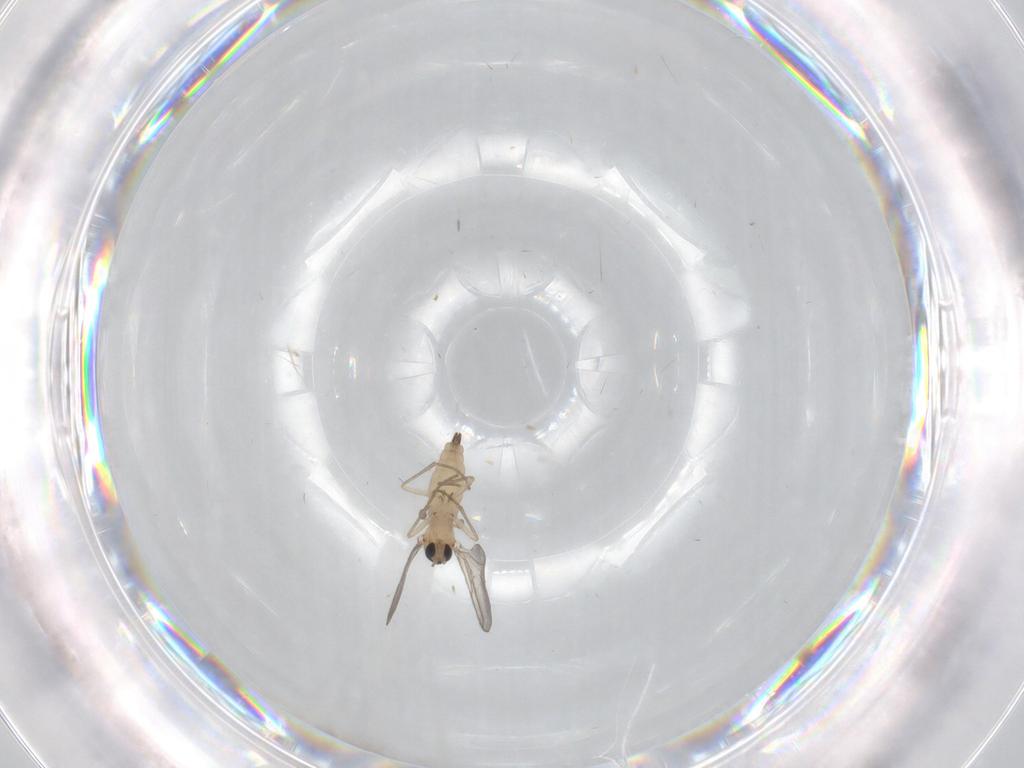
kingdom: Animalia
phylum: Arthropoda
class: Insecta
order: Diptera
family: Sciaridae
